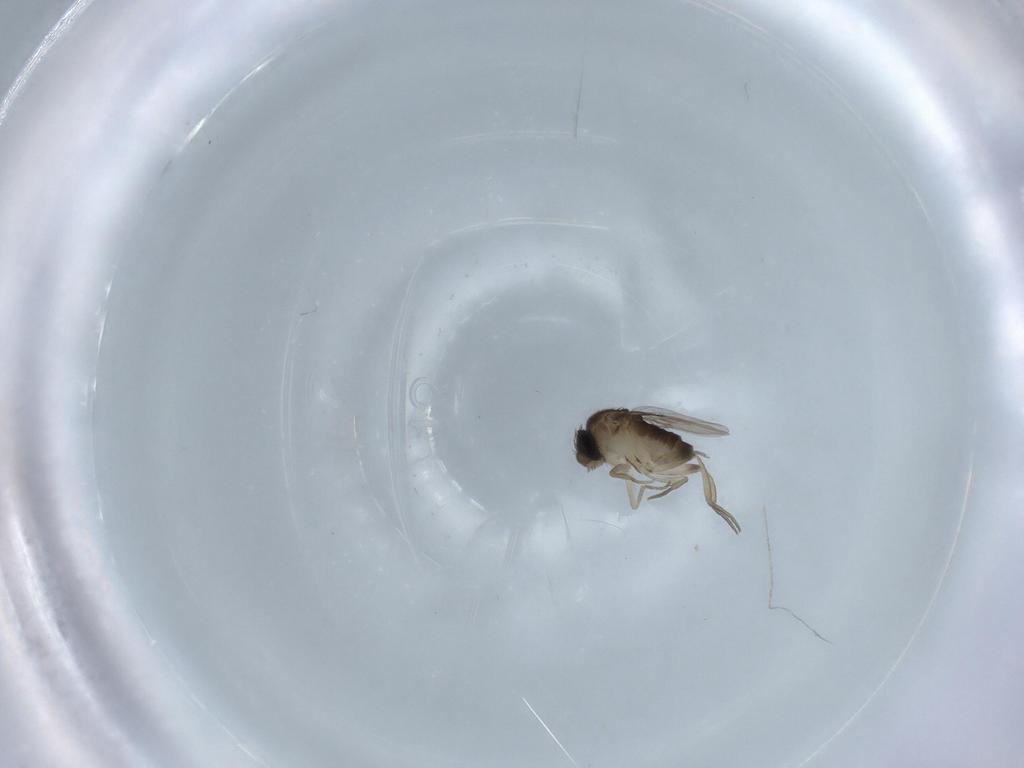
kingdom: Animalia
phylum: Arthropoda
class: Insecta
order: Diptera
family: Chironomidae
